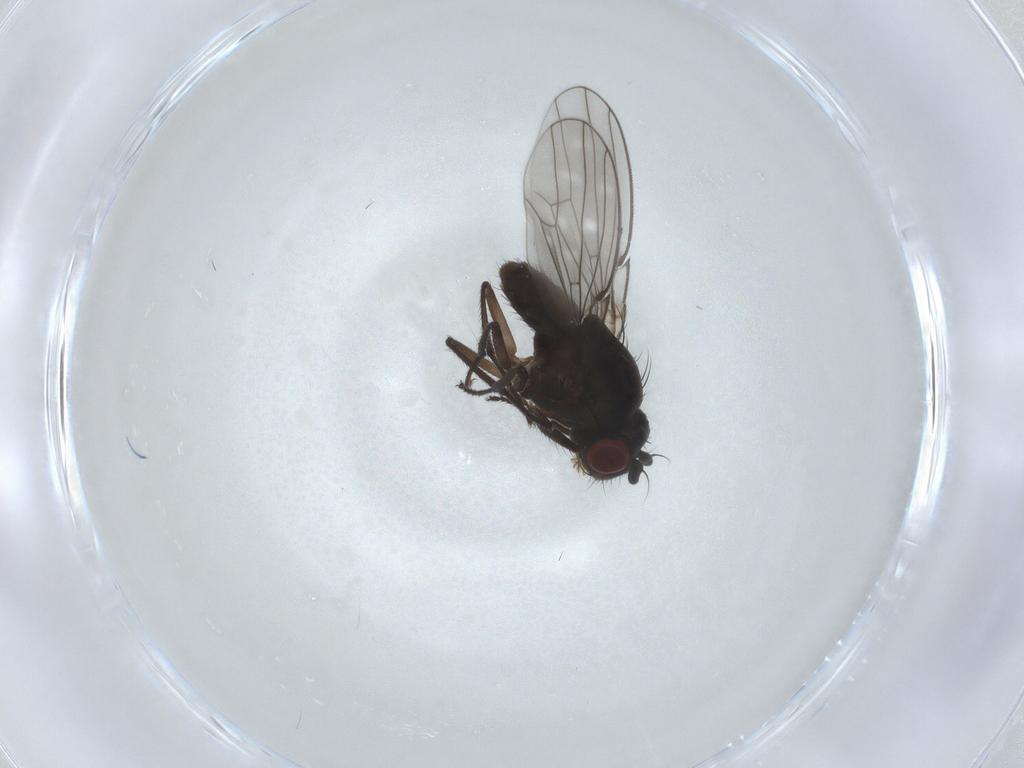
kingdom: Animalia
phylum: Arthropoda
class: Insecta
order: Diptera
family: Ephydridae
